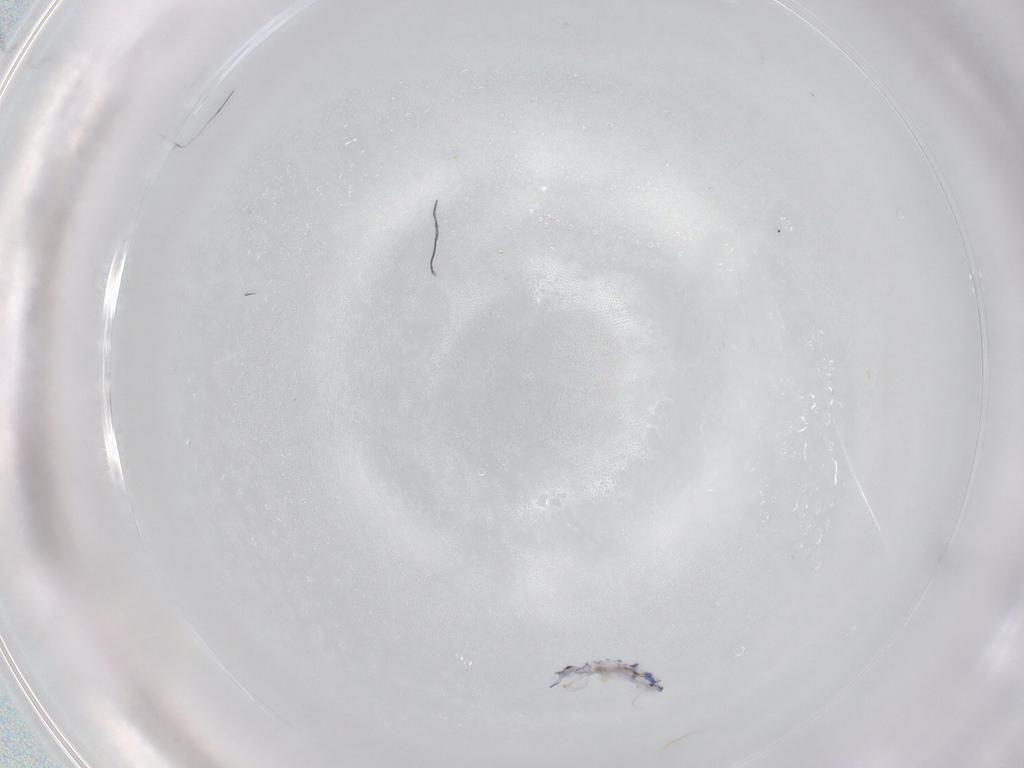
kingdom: Animalia
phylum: Arthropoda
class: Collembola
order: Entomobryomorpha
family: Entomobryidae
